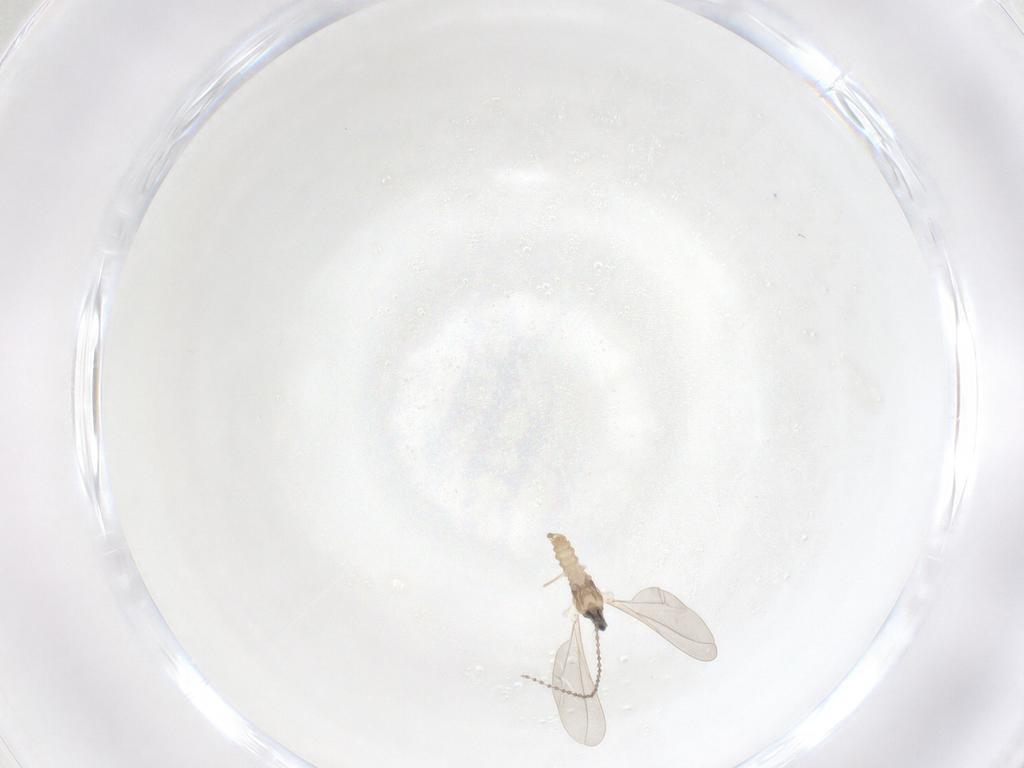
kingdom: Animalia
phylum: Arthropoda
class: Insecta
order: Diptera
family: Cecidomyiidae
